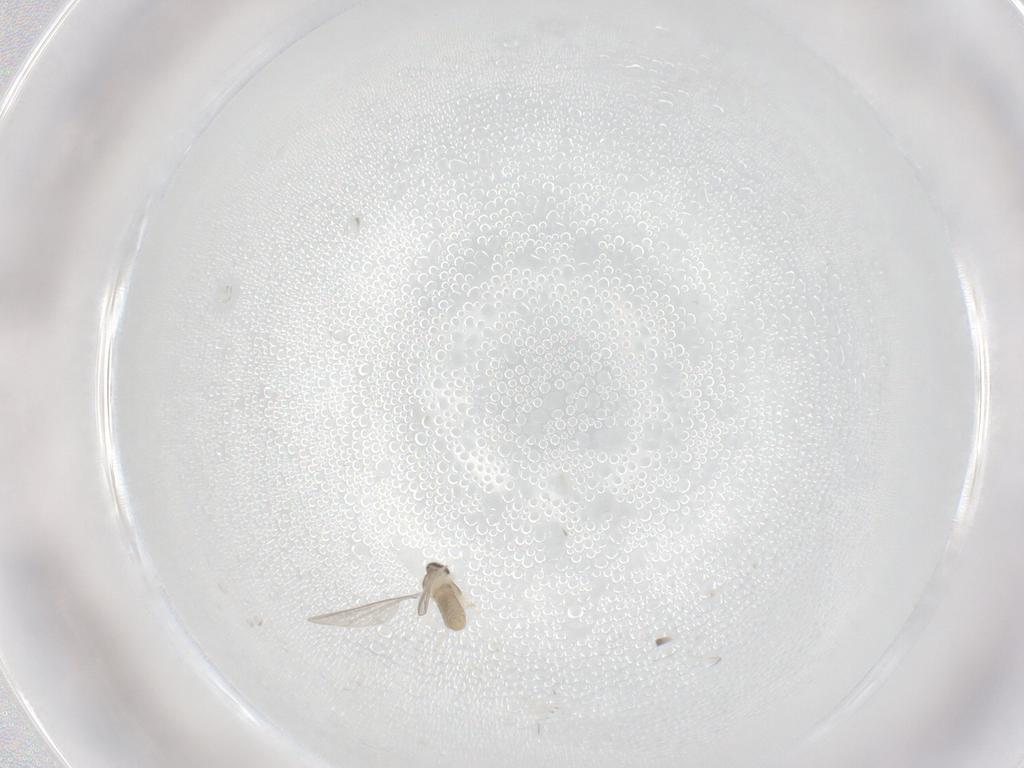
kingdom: Animalia
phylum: Arthropoda
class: Insecta
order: Diptera
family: Cecidomyiidae
